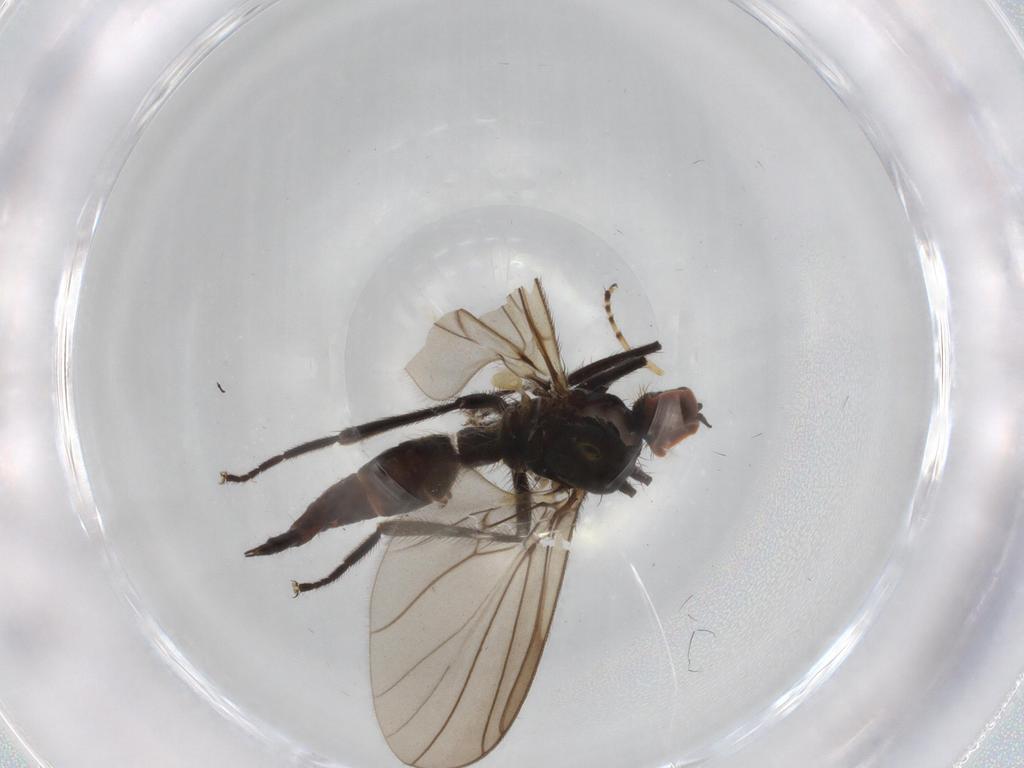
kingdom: Animalia
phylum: Arthropoda
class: Insecta
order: Diptera
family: Hybotidae
